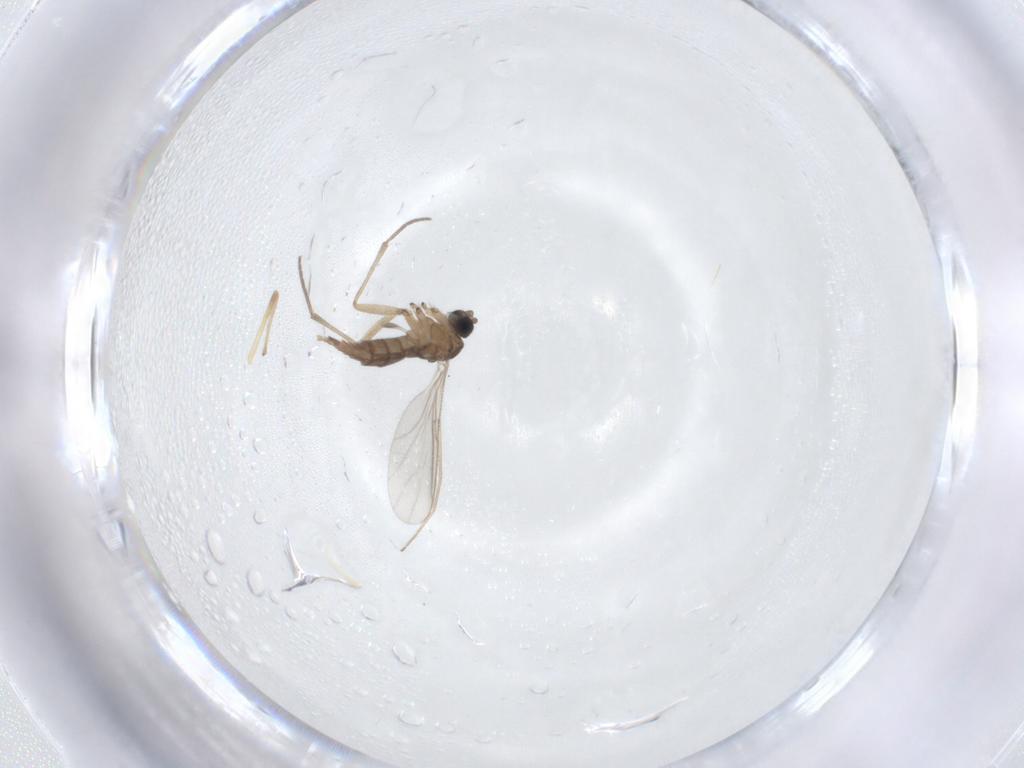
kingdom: Animalia
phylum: Arthropoda
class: Insecta
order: Diptera
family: Sciaridae
